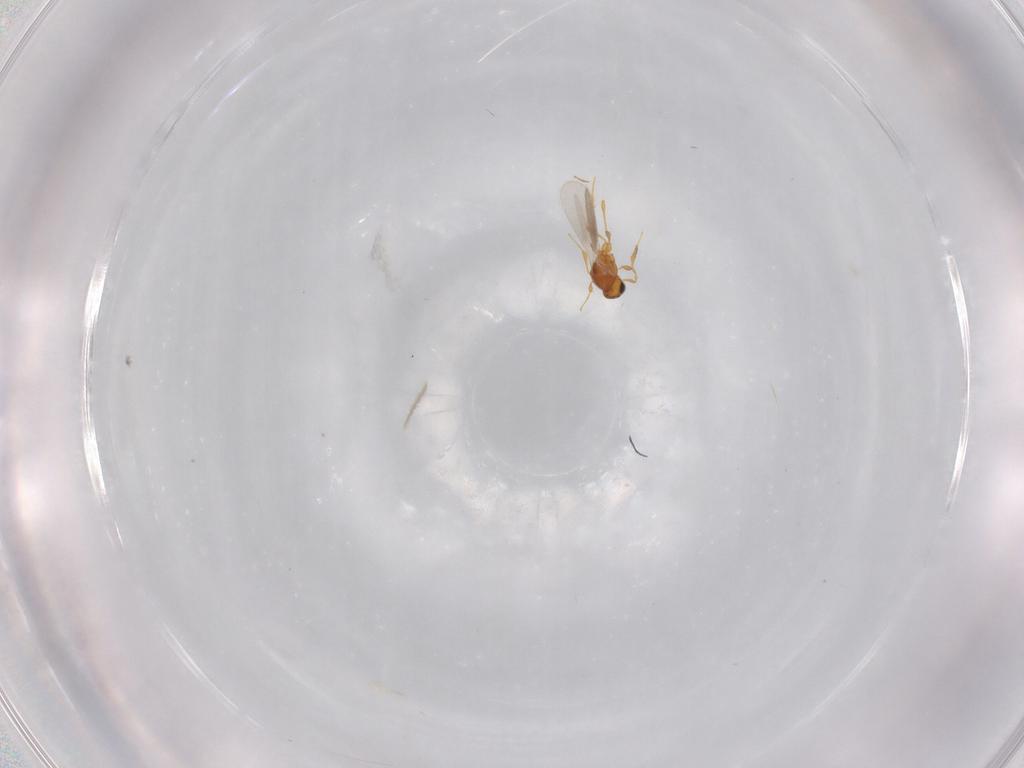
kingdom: Animalia
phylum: Arthropoda
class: Insecta
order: Hymenoptera
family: Platygastridae
